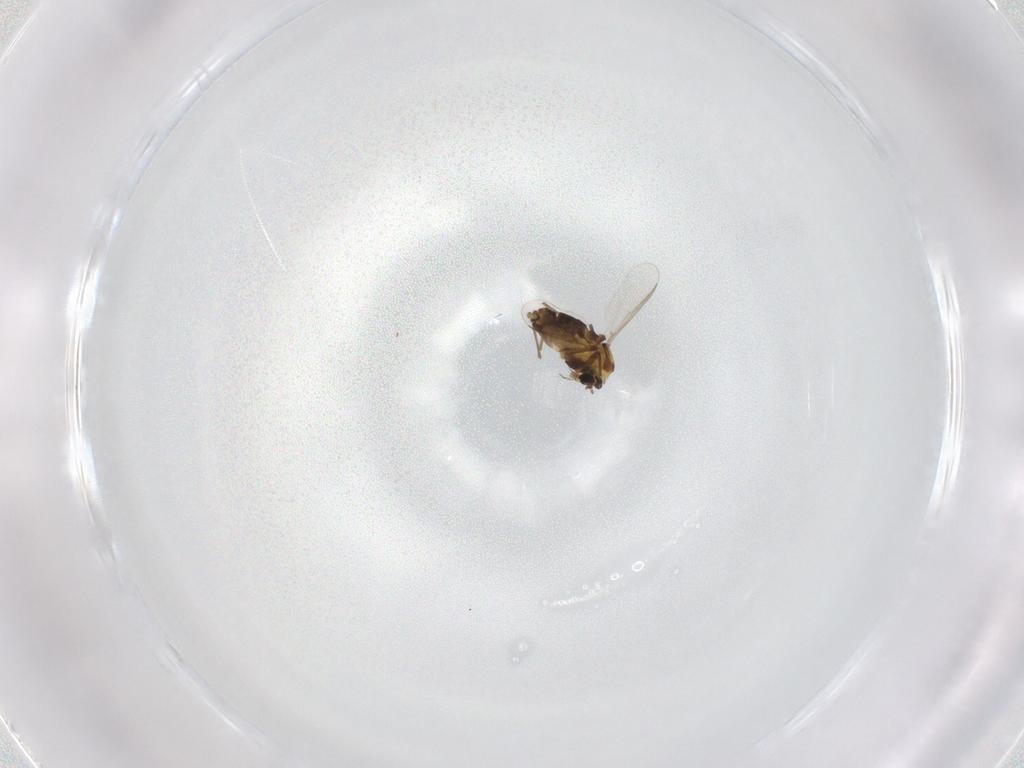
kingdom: Animalia
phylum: Arthropoda
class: Insecta
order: Diptera
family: Chironomidae
